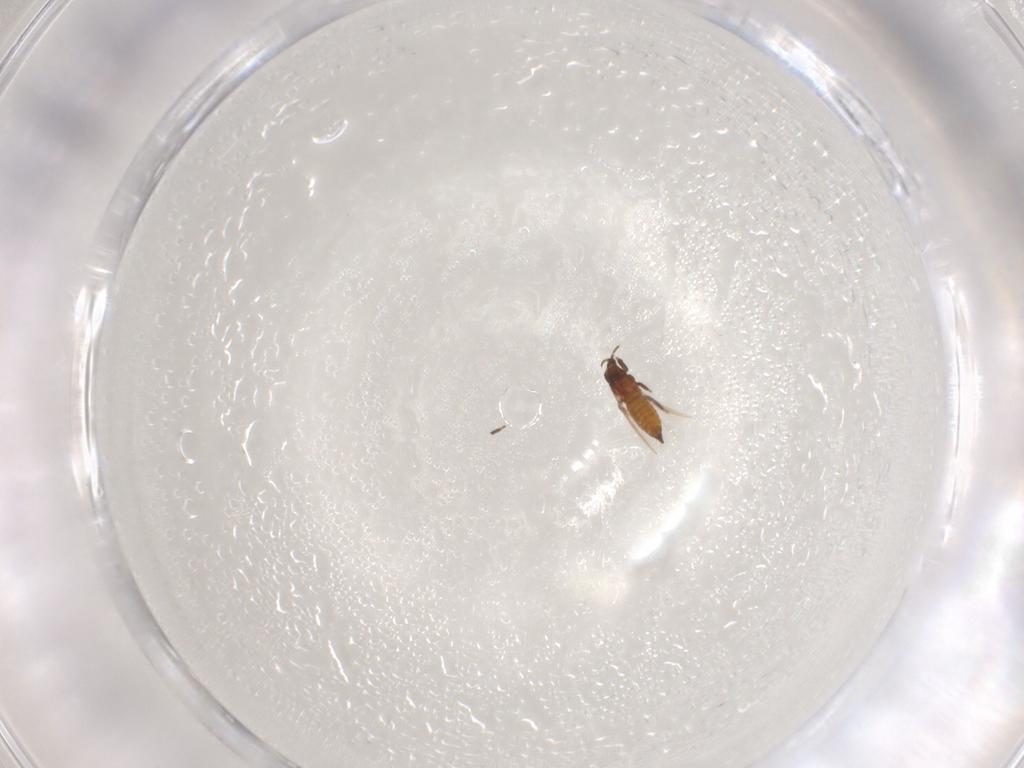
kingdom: Animalia
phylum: Arthropoda
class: Insecta
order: Thysanoptera
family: Thripidae
